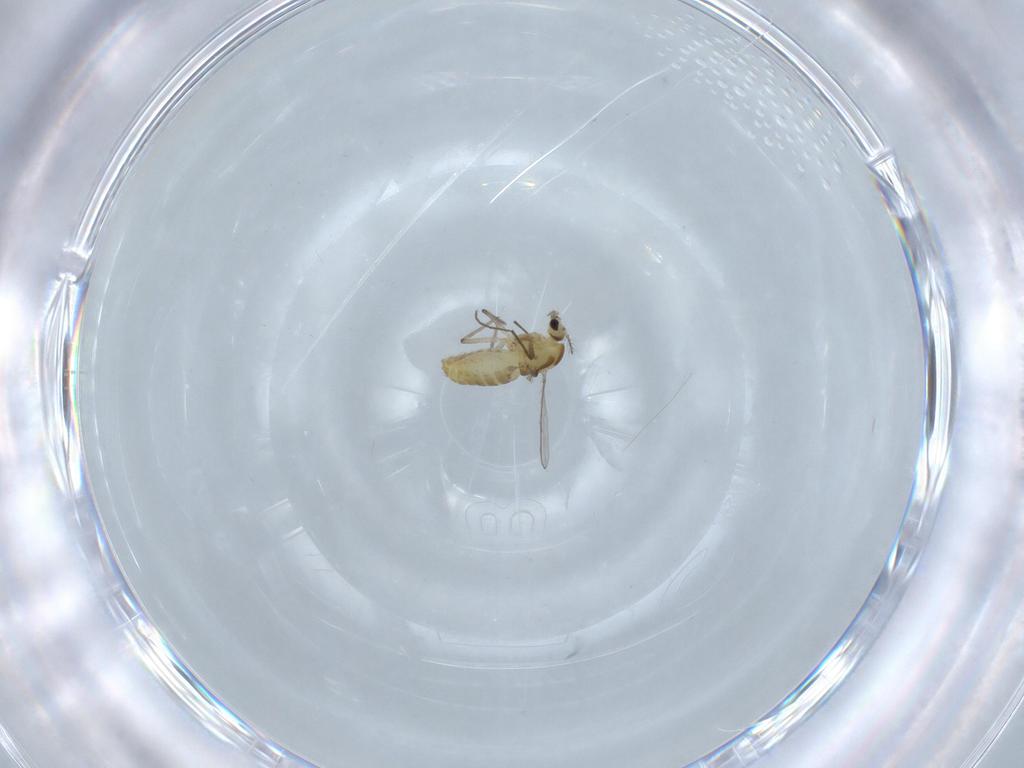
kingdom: Animalia
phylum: Arthropoda
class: Insecta
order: Diptera
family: Chironomidae
